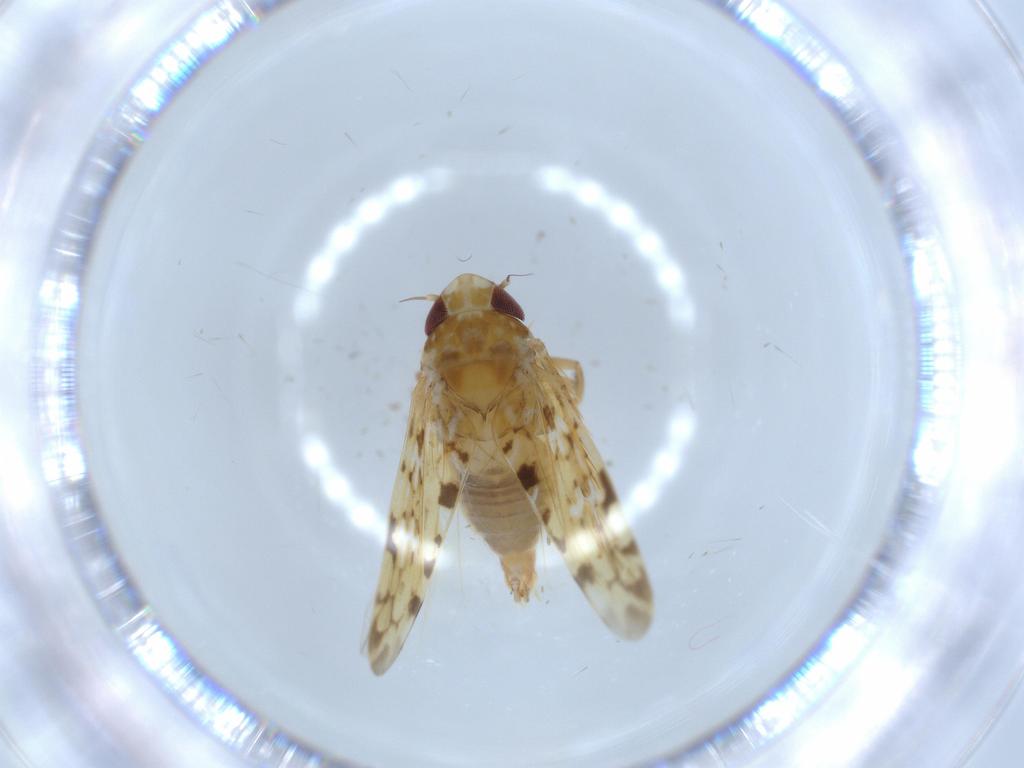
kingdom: Animalia
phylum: Arthropoda
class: Insecta
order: Hemiptera
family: Cicadellidae
